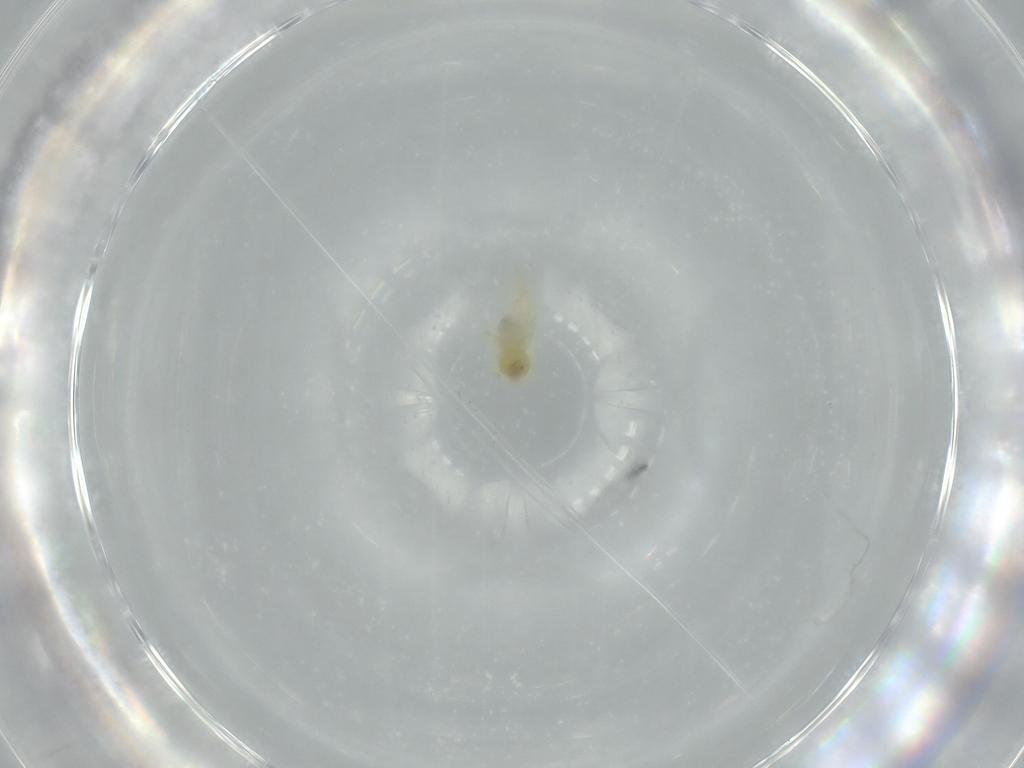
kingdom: Animalia
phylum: Arthropoda
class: Insecta
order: Hemiptera
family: Aleyrodidae
